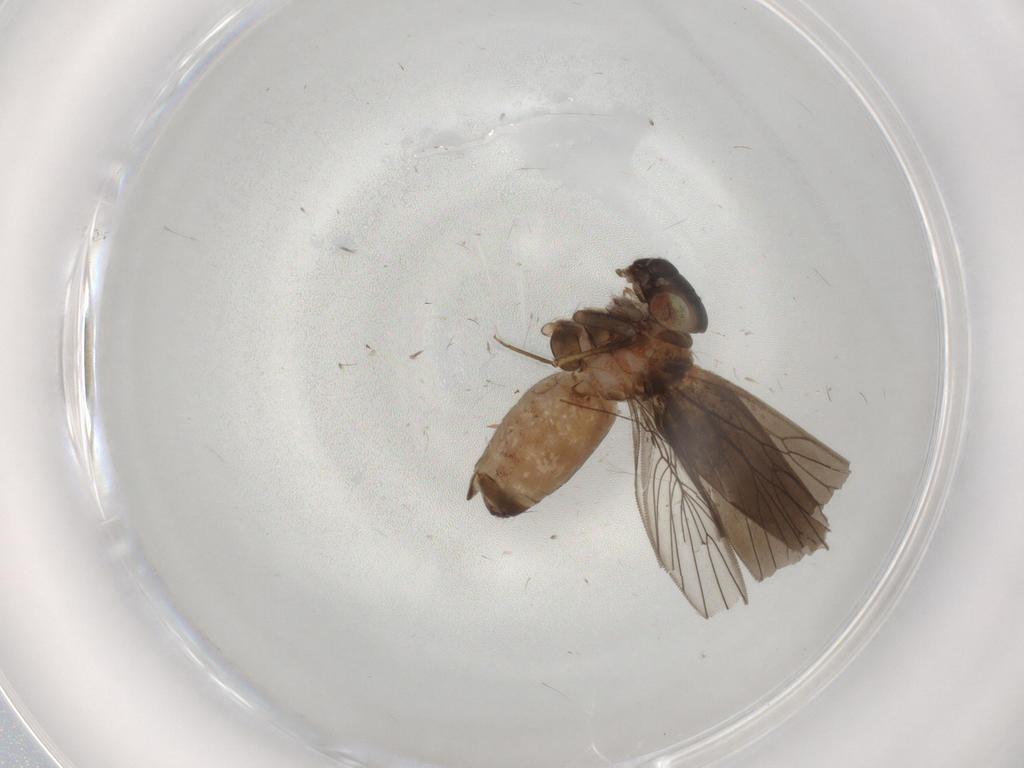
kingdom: Animalia
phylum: Arthropoda
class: Insecta
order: Psocodea
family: Lepidopsocidae
